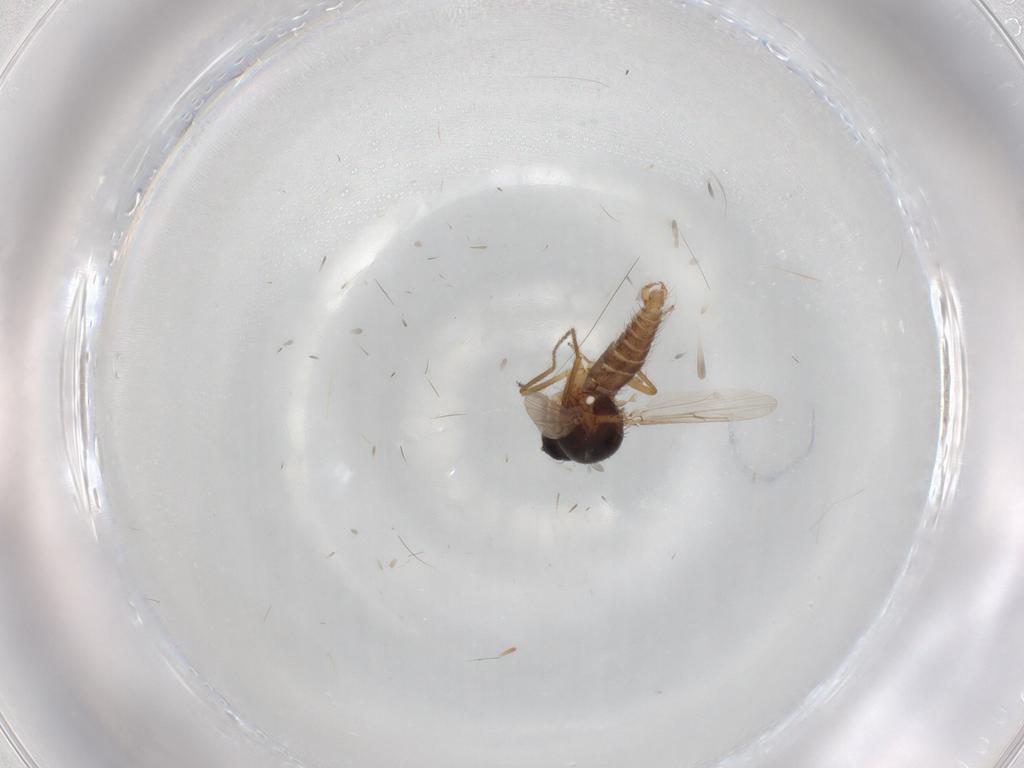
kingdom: Animalia
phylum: Arthropoda
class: Insecta
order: Diptera
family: Ceratopogonidae
